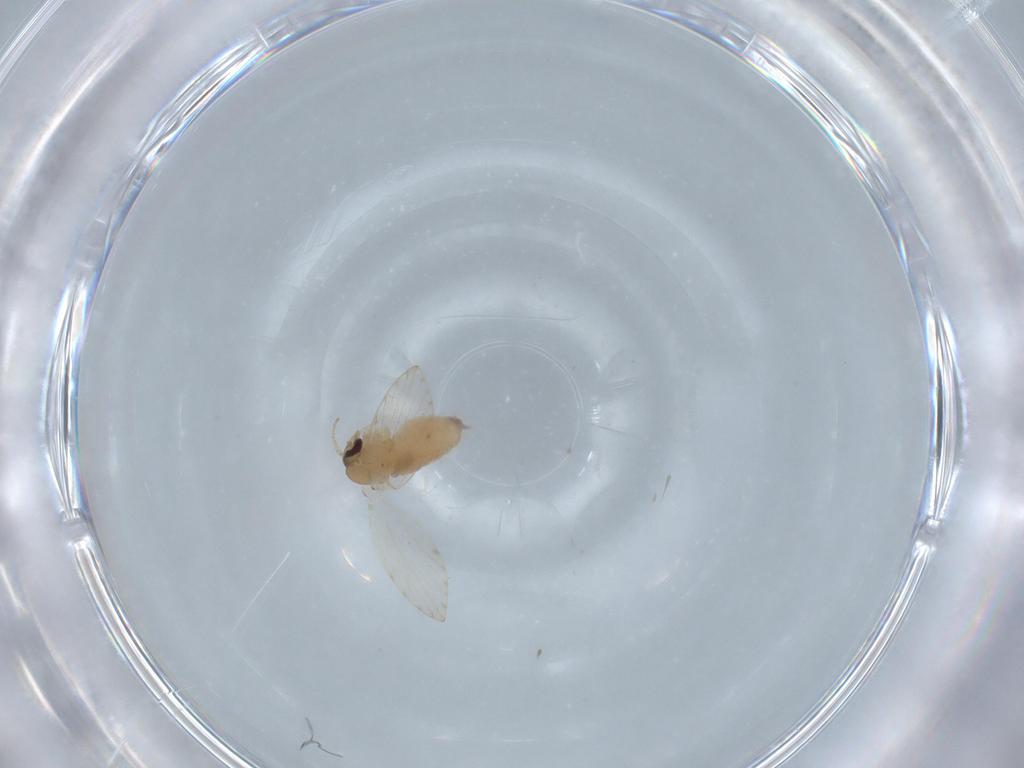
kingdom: Animalia
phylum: Arthropoda
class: Insecta
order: Diptera
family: Psychodidae
